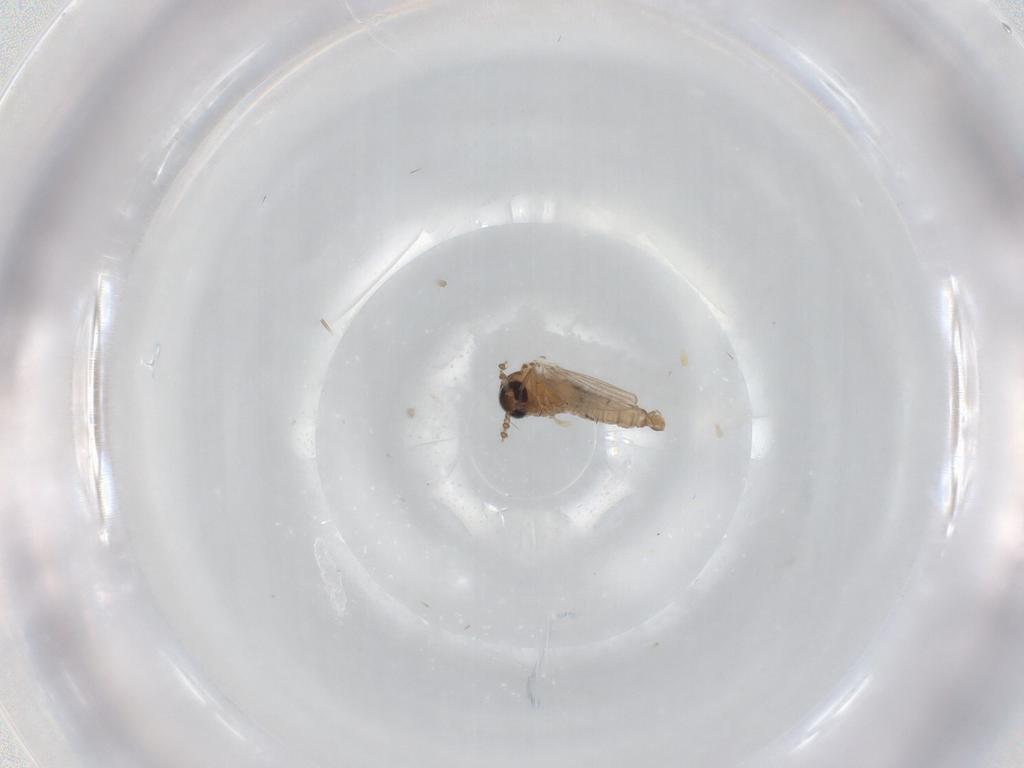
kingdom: Animalia
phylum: Arthropoda
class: Insecta
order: Diptera
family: Psychodidae
